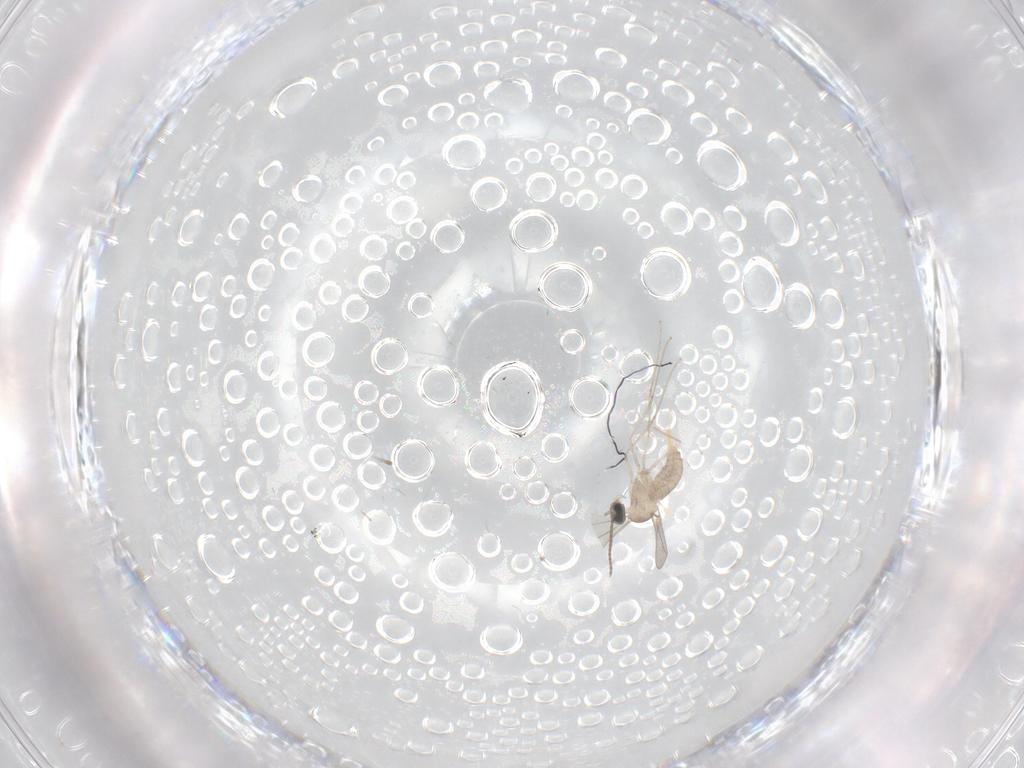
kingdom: Animalia
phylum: Arthropoda
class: Insecta
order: Diptera
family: Chironomidae
